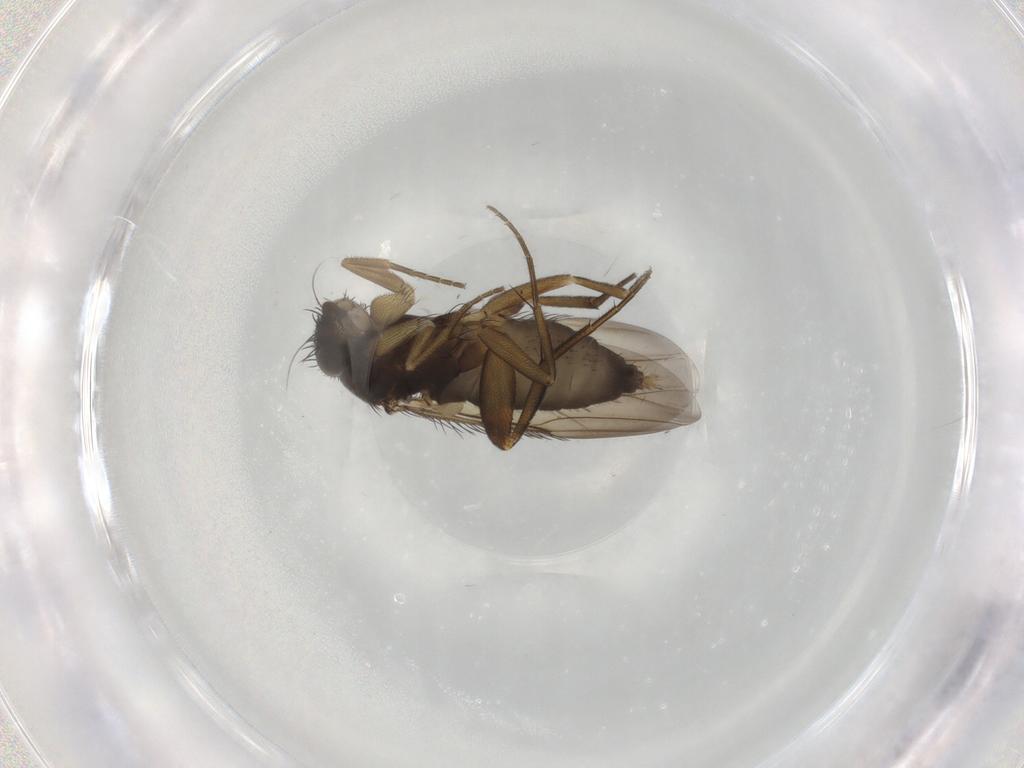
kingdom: Animalia
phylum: Arthropoda
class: Insecta
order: Diptera
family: Phoridae
